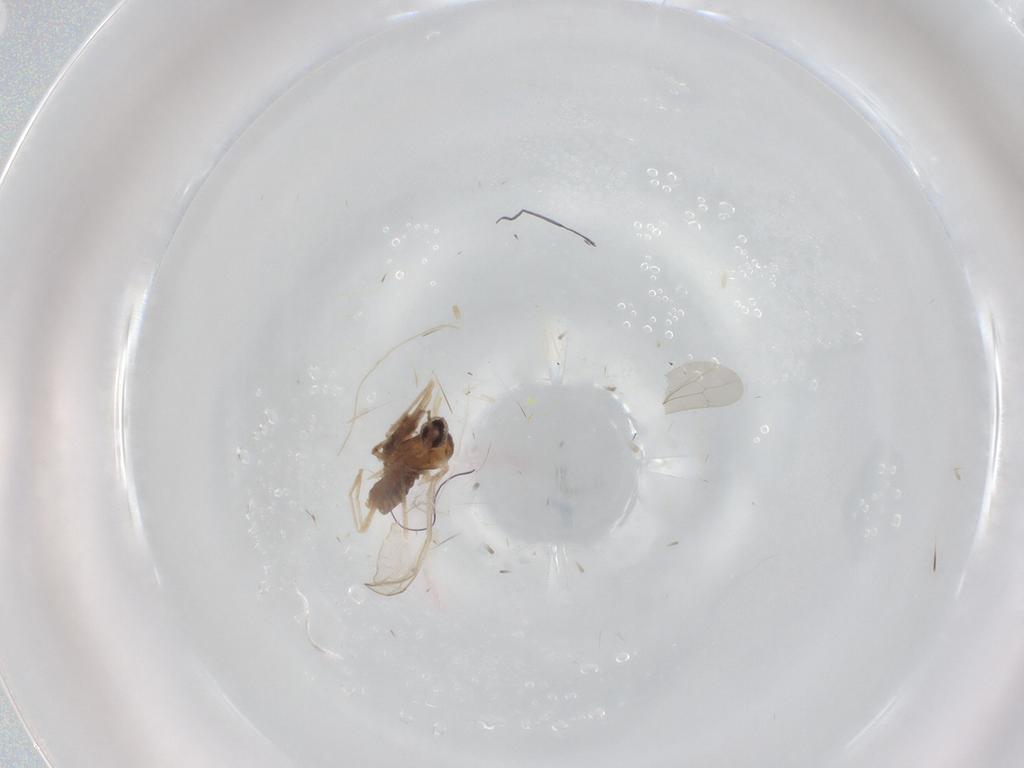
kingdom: Animalia
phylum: Arthropoda
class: Insecta
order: Diptera
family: Cecidomyiidae
